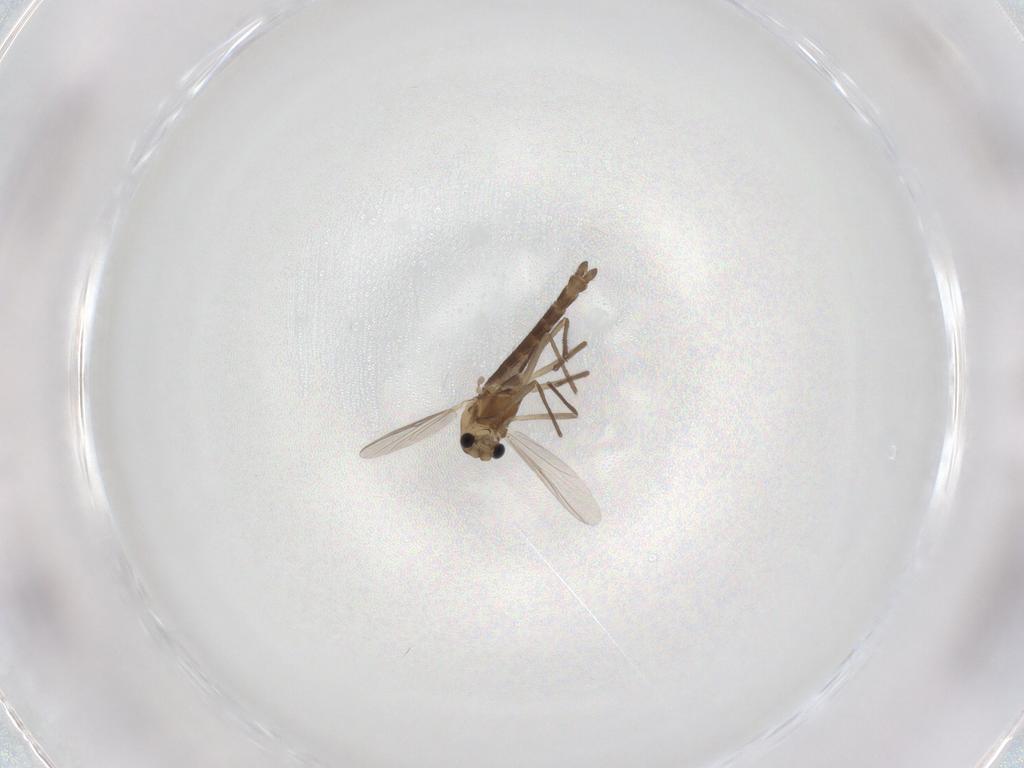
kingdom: Animalia
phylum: Arthropoda
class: Insecta
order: Diptera
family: Chironomidae
